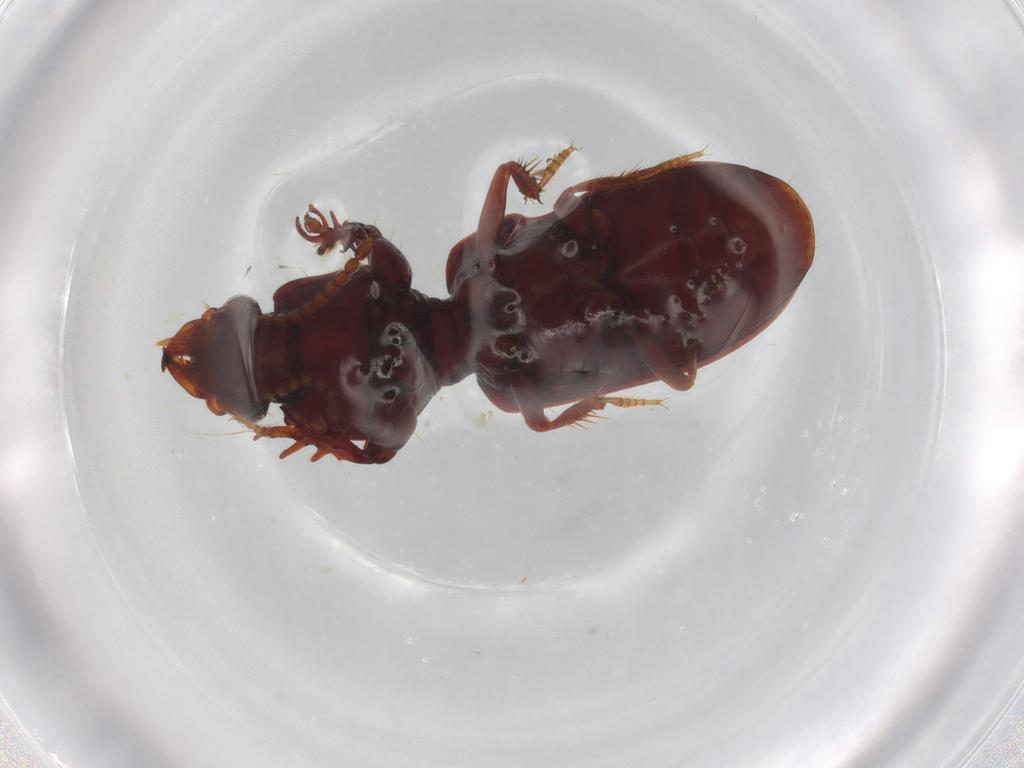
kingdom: Animalia
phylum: Arthropoda
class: Insecta
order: Coleoptera
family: Carabidae
